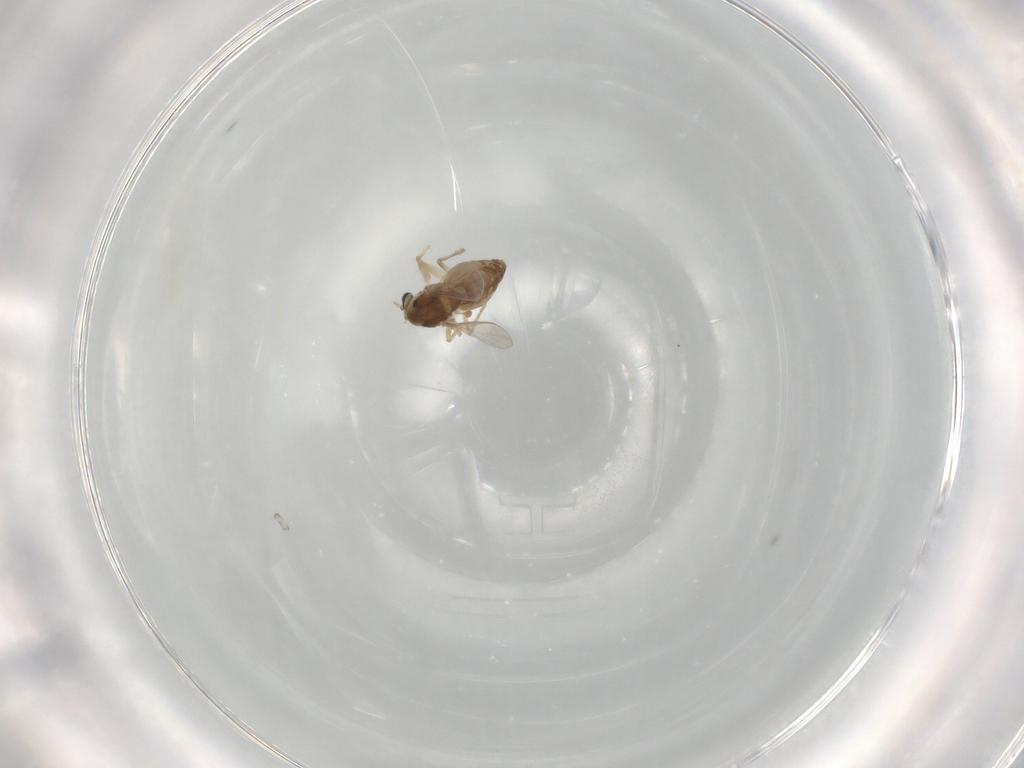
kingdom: Animalia
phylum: Arthropoda
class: Insecta
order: Diptera
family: Chironomidae
